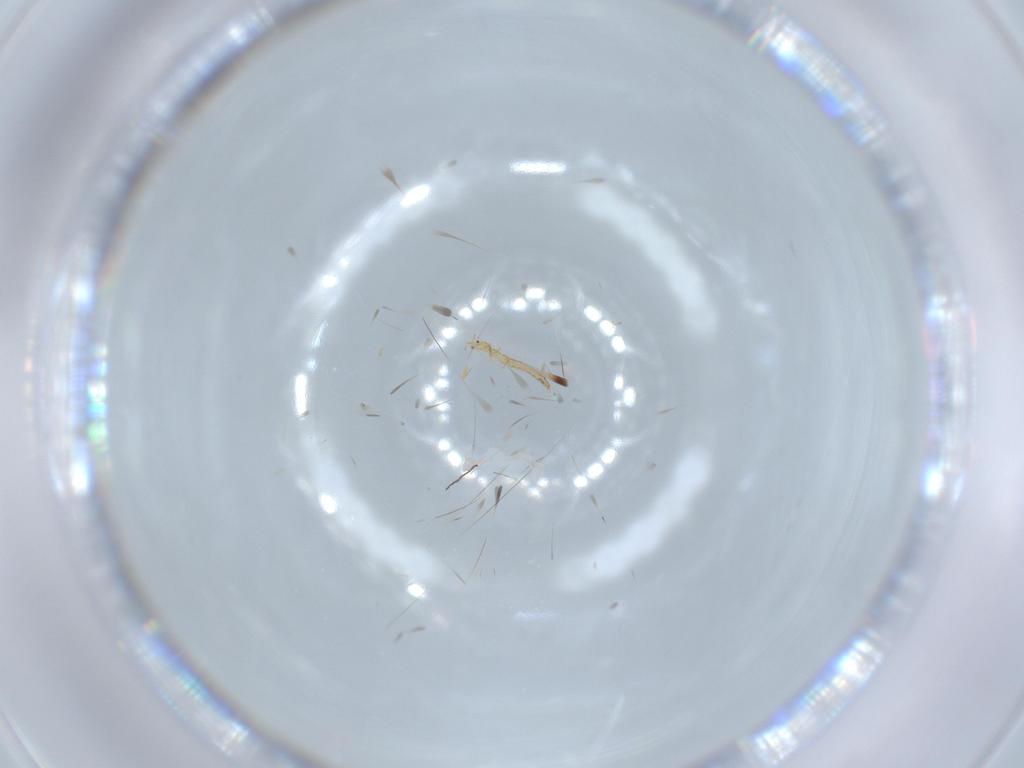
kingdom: Animalia
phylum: Arthropoda
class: Insecta
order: Neuroptera
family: Mantispidae
